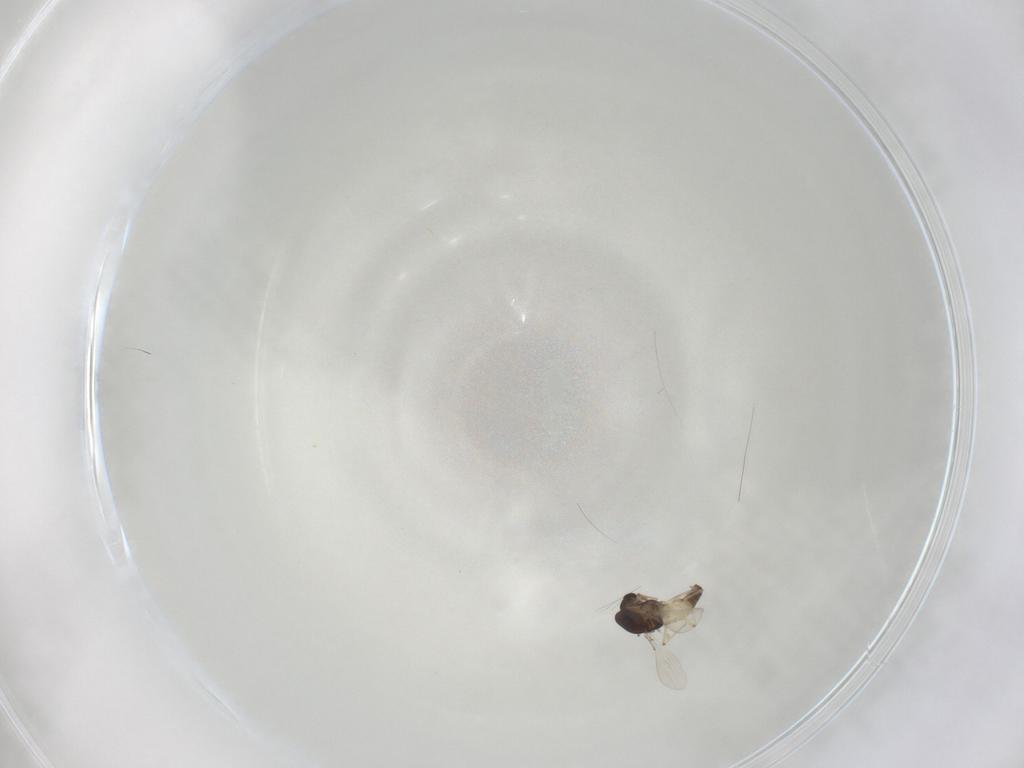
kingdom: Animalia
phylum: Arthropoda
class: Insecta
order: Diptera
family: Chironomidae
